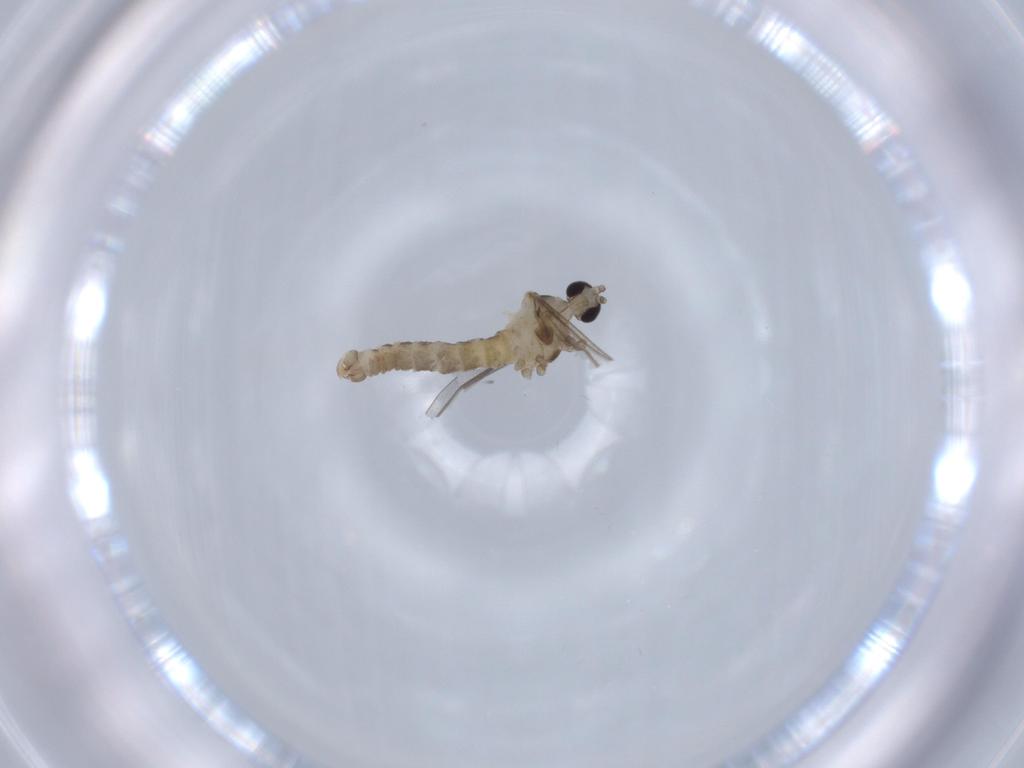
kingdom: Animalia
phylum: Arthropoda
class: Insecta
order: Diptera
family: Cecidomyiidae
